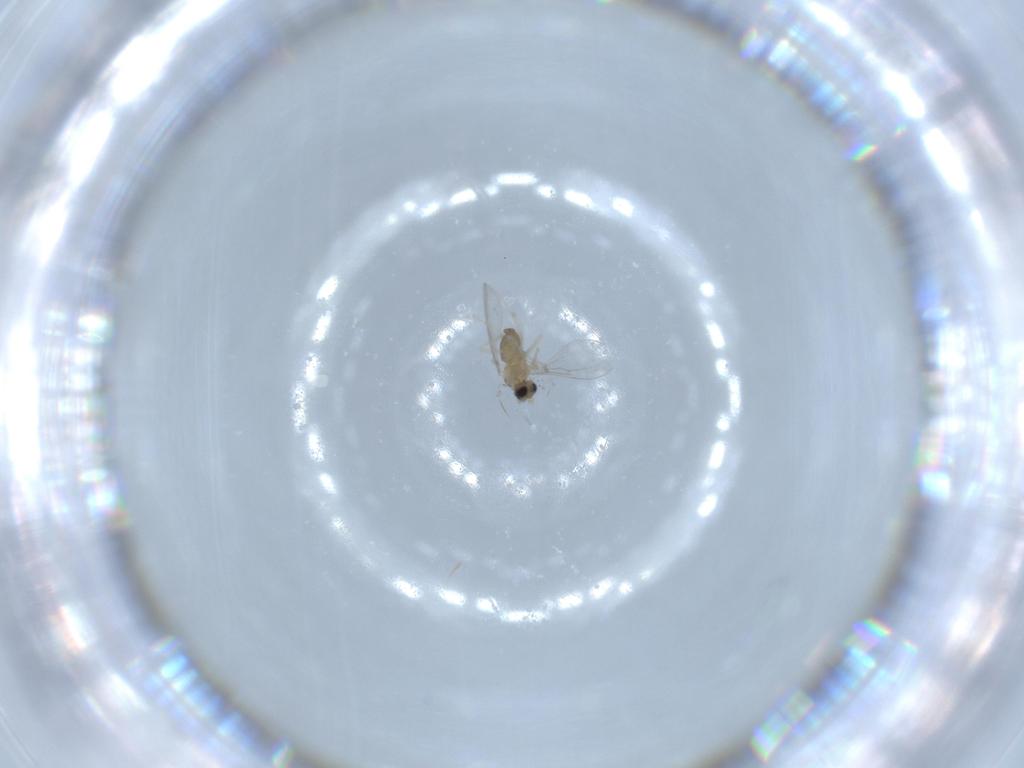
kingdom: Animalia
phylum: Arthropoda
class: Insecta
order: Diptera
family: Cecidomyiidae
